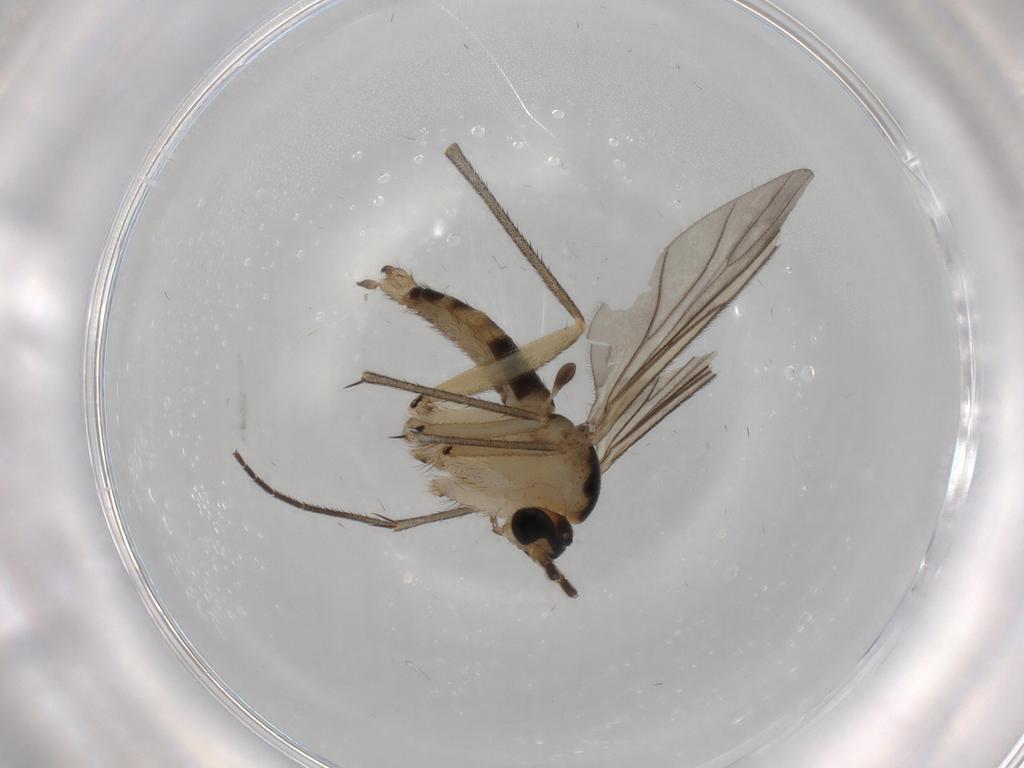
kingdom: Animalia
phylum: Arthropoda
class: Insecta
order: Diptera
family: Sciaridae
